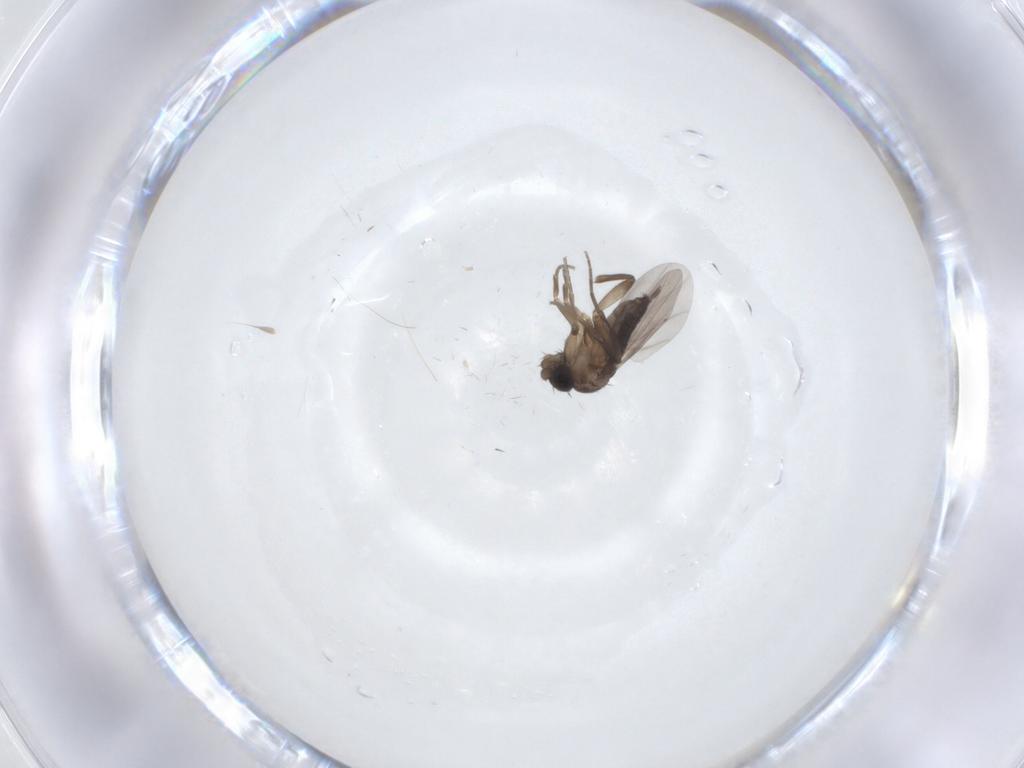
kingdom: Animalia
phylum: Arthropoda
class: Insecta
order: Diptera
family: Phoridae
